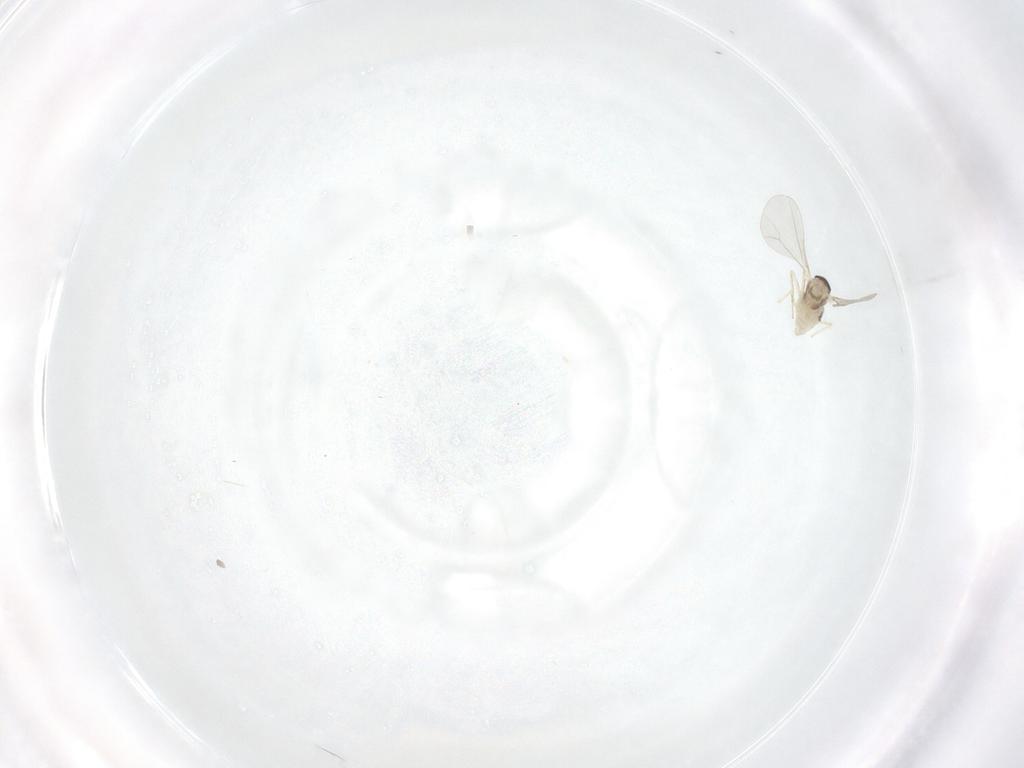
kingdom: Animalia
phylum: Arthropoda
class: Insecta
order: Diptera
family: Cecidomyiidae
